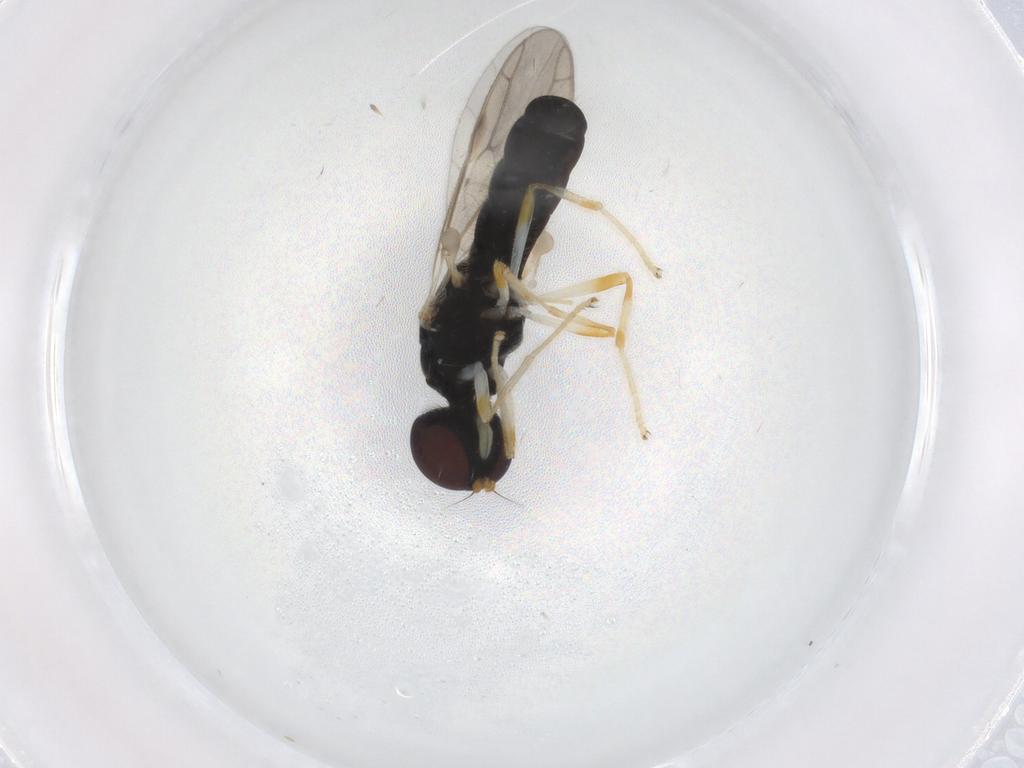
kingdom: Animalia
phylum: Arthropoda
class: Insecta
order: Diptera
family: Stratiomyidae
